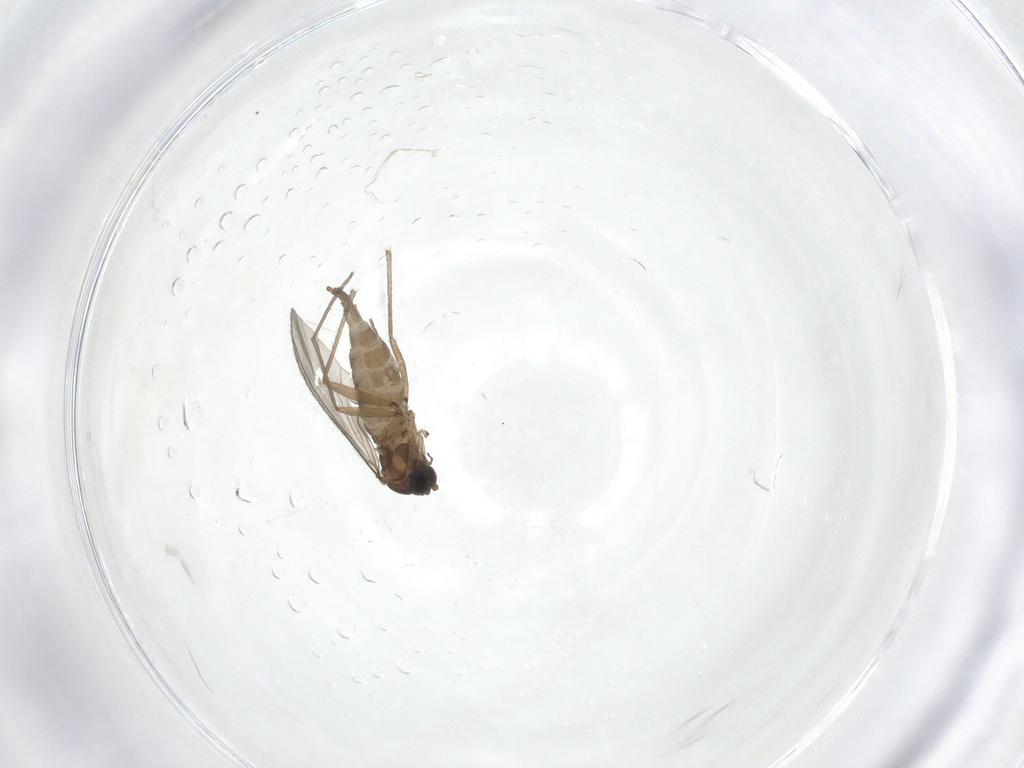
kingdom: Animalia
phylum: Arthropoda
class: Insecta
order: Diptera
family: Sciaridae
